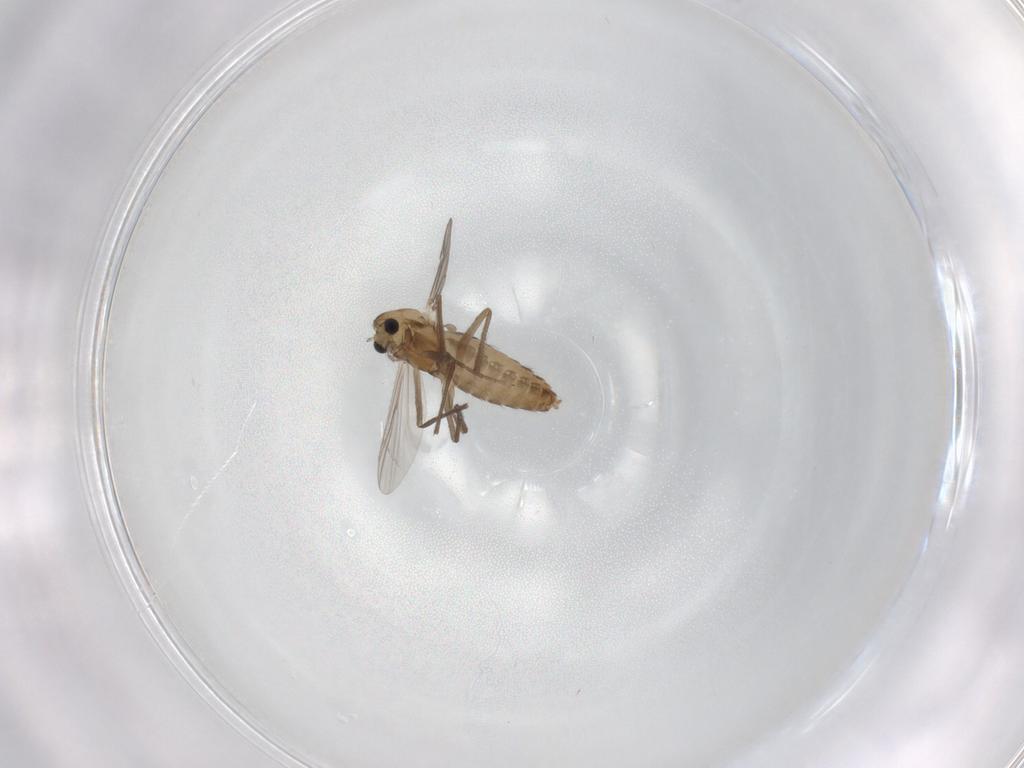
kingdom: Animalia
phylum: Arthropoda
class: Insecta
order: Diptera
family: Chironomidae
